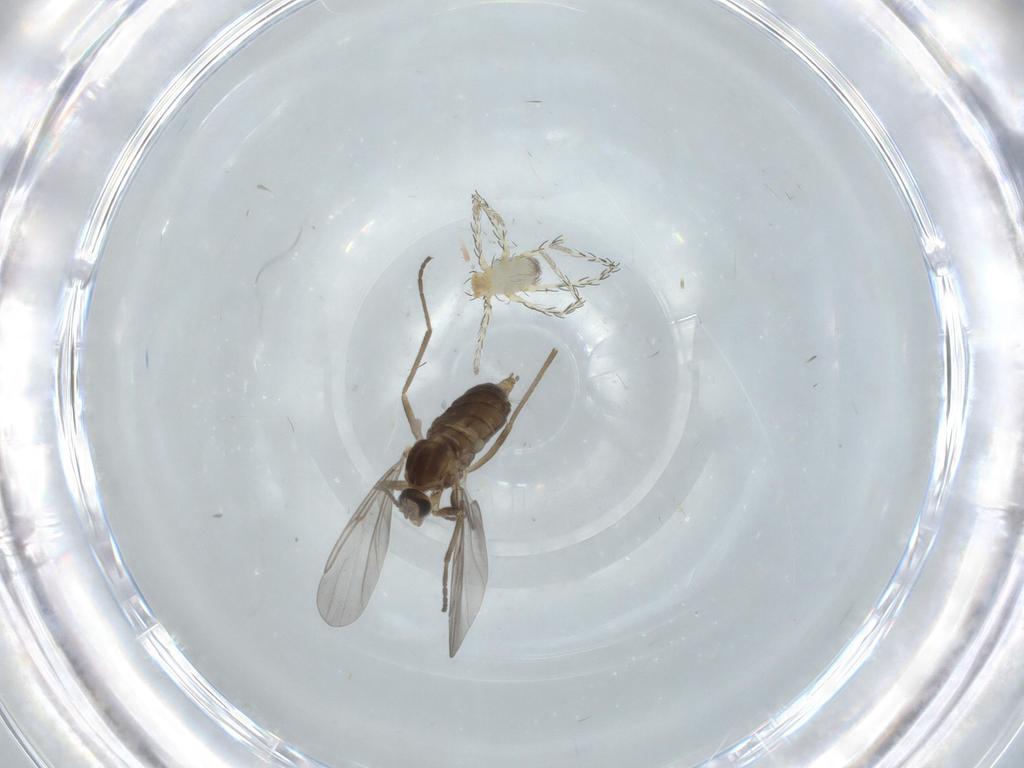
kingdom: Animalia
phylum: Arthropoda
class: Insecta
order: Diptera
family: Cecidomyiidae
